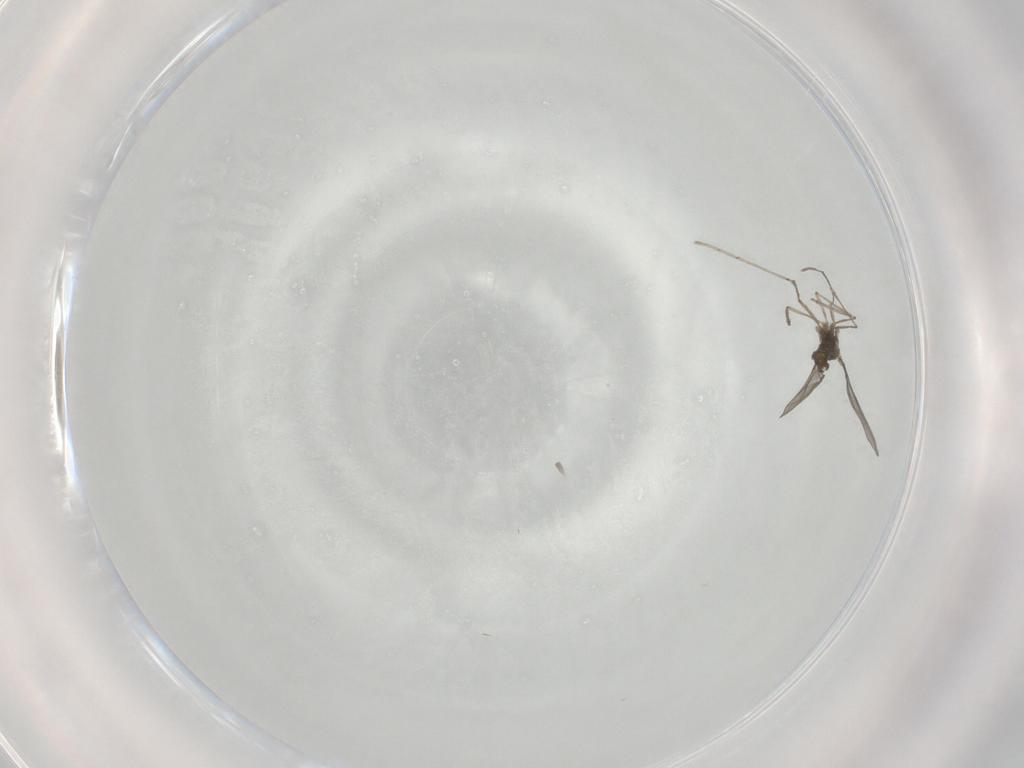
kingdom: Animalia
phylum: Arthropoda
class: Insecta
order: Diptera
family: Cecidomyiidae
